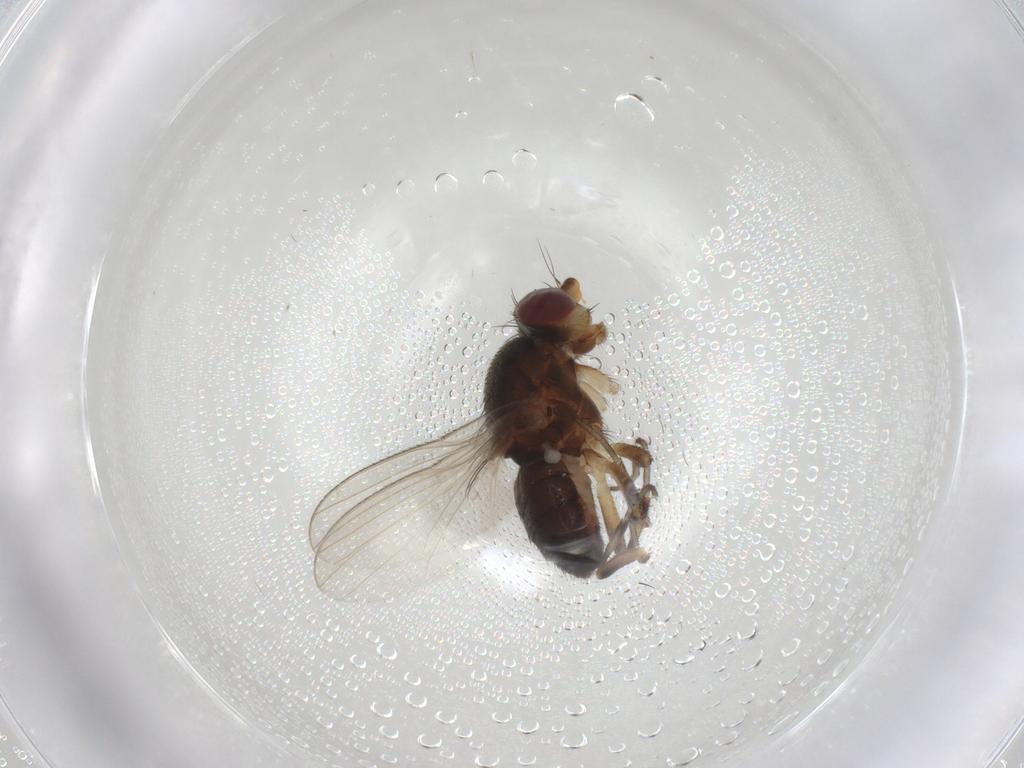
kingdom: Animalia
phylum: Arthropoda
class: Insecta
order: Diptera
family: Heleomyzidae
